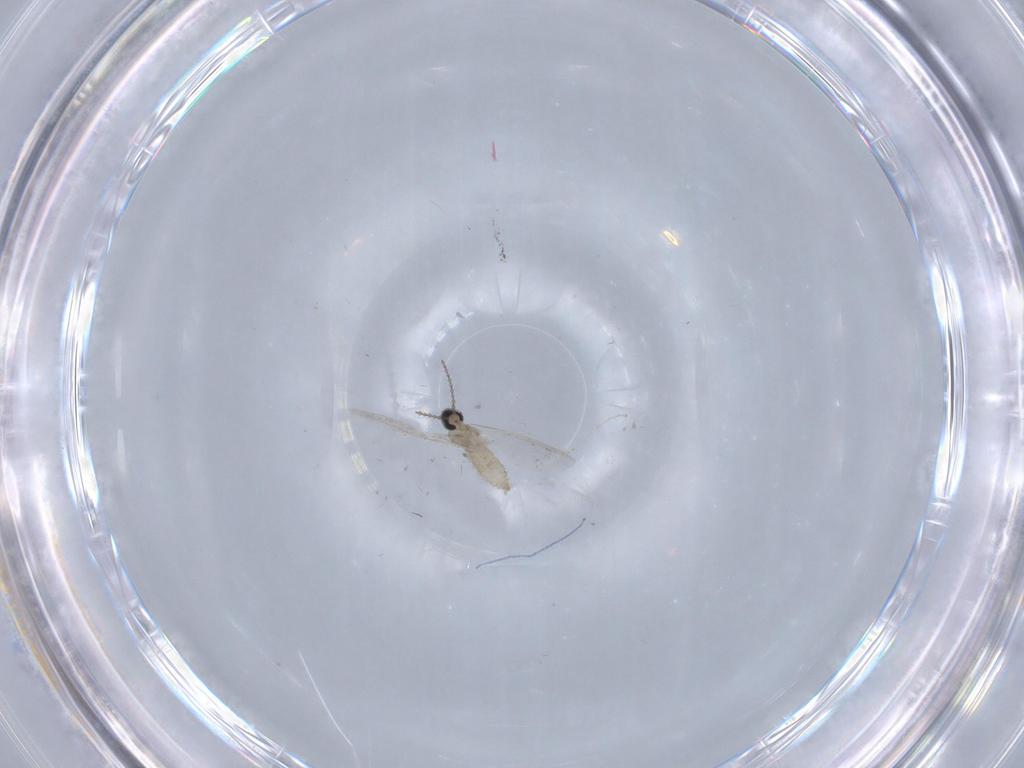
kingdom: Animalia
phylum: Arthropoda
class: Insecta
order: Diptera
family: Cecidomyiidae
